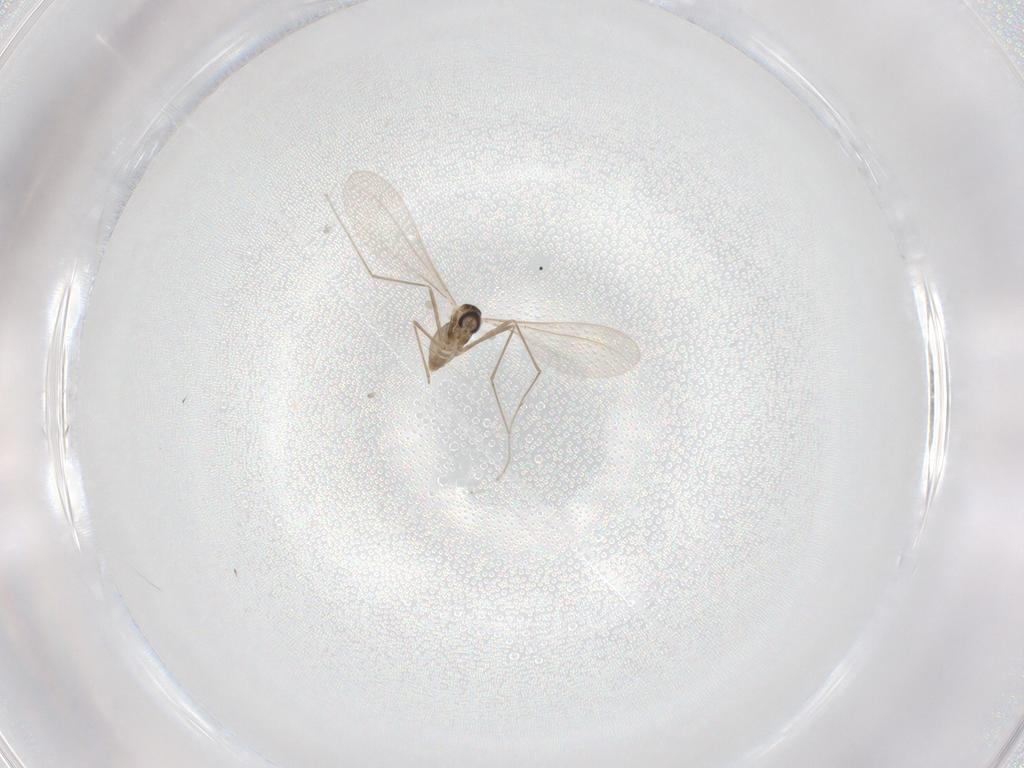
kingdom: Animalia
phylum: Arthropoda
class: Insecta
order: Diptera
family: Cecidomyiidae
